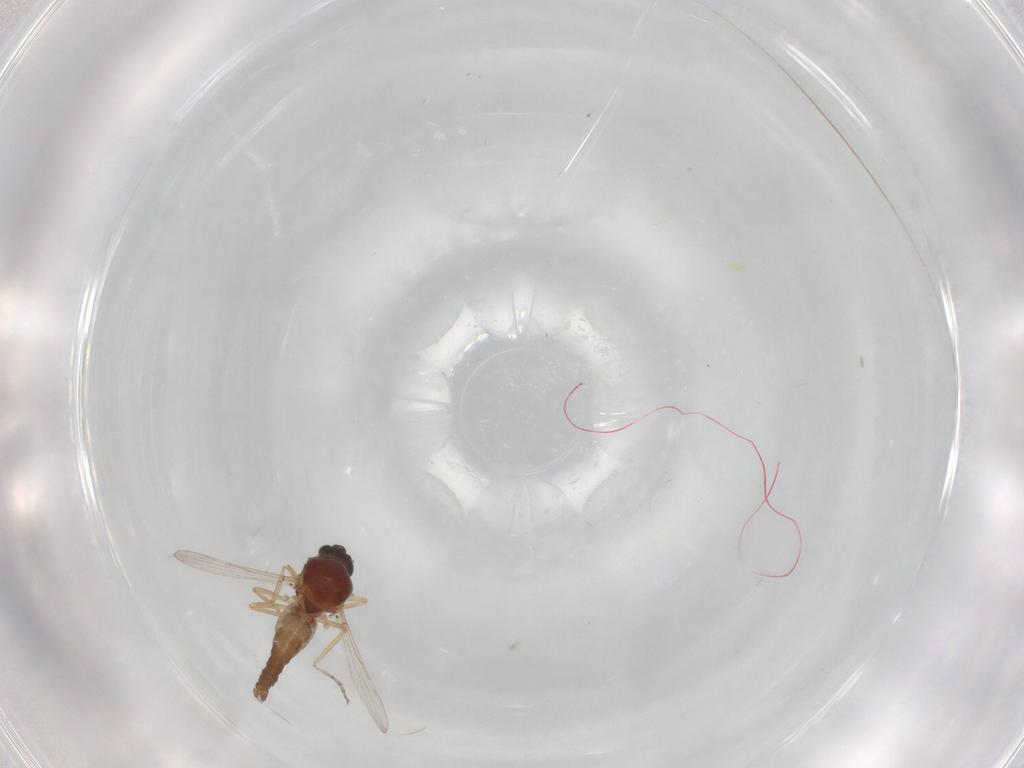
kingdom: Animalia
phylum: Arthropoda
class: Insecta
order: Diptera
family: Ceratopogonidae
